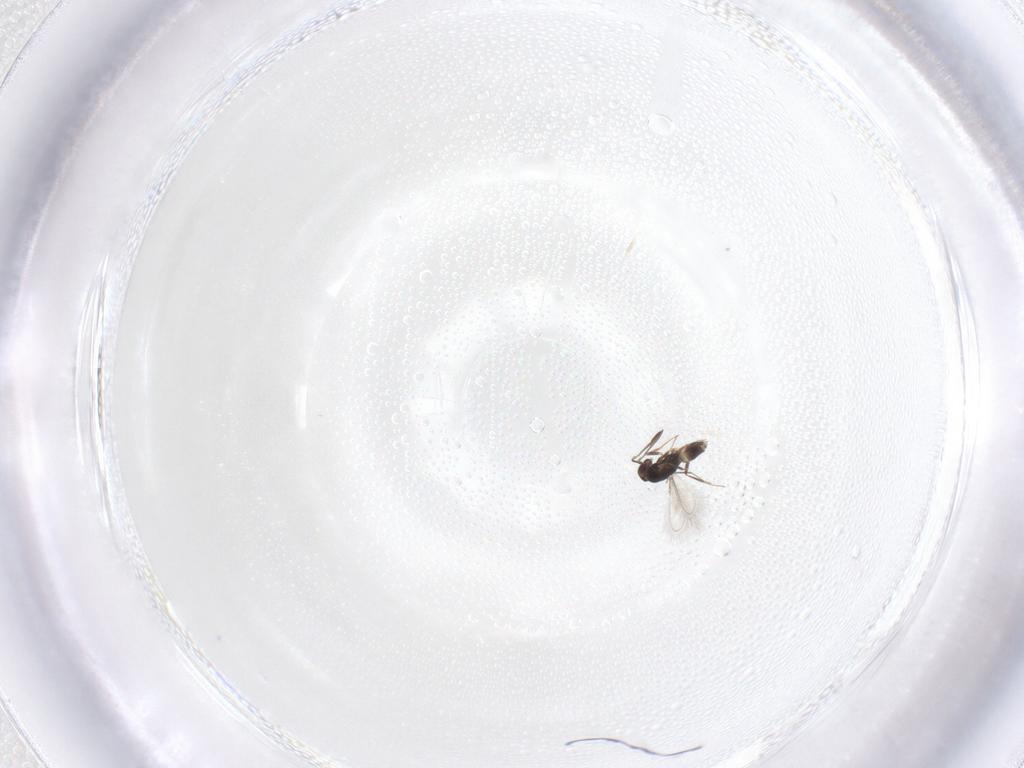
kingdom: Animalia
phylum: Arthropoda
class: Insecta
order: Hymenoptera
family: Mymaridae
